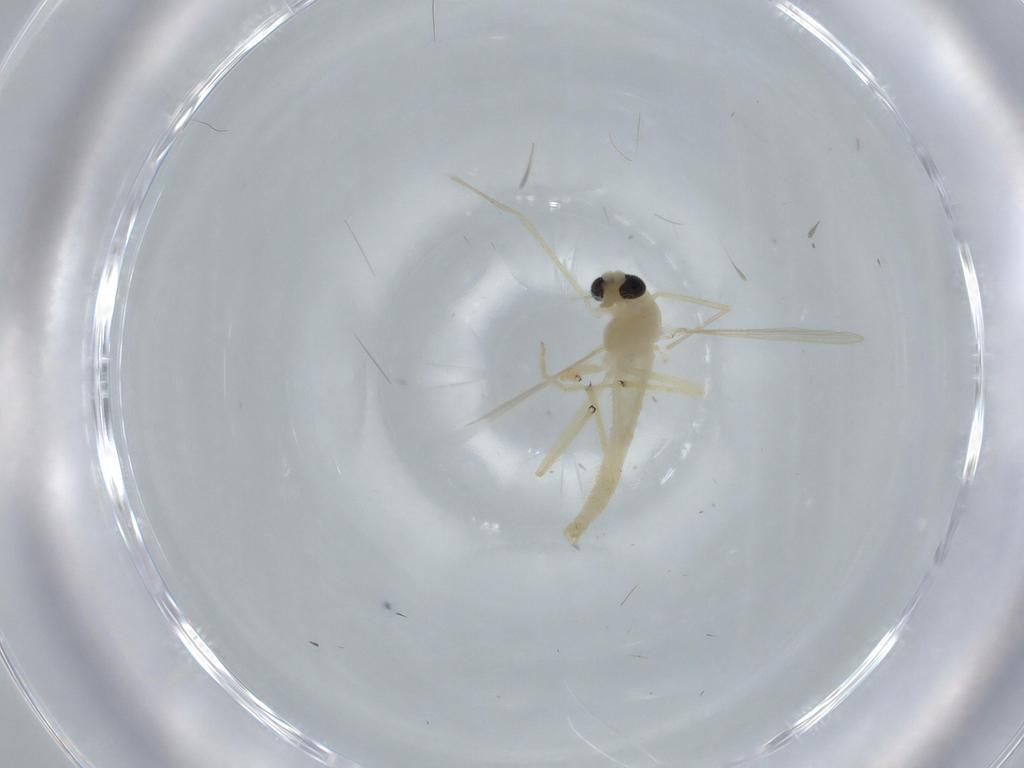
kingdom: Animalia
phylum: Arthropoda
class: Insecta
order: Diptera
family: Chironomidae
